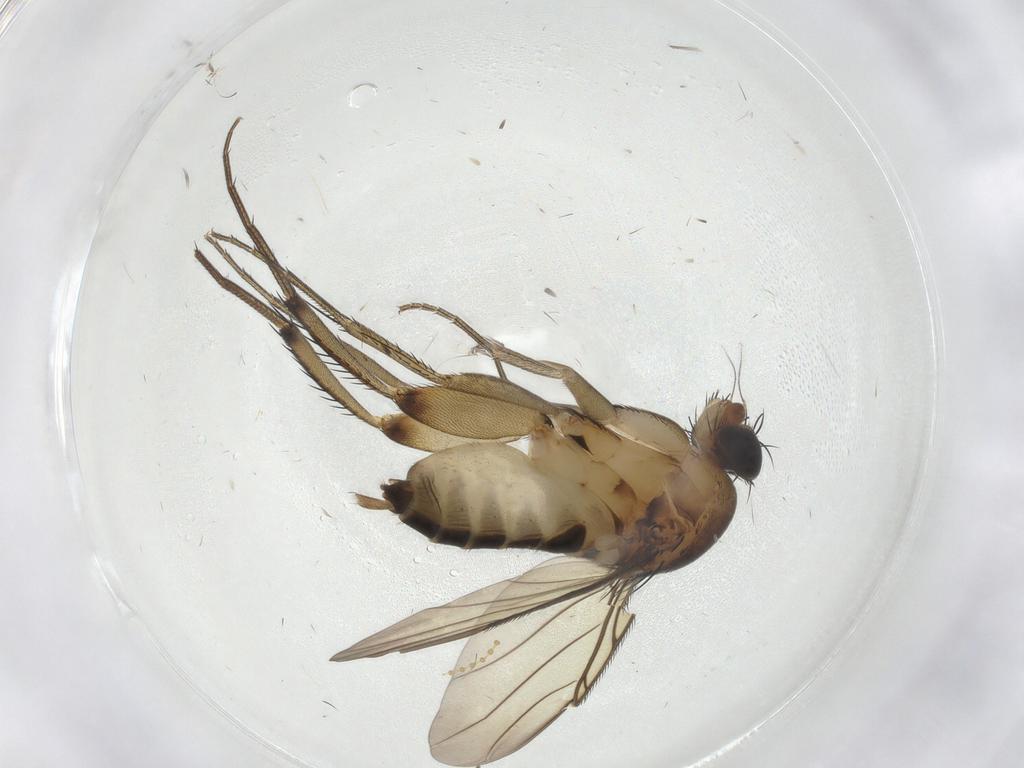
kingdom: Animalia
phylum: Arthropoda
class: Insecta
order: Diptera
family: Phoridae
